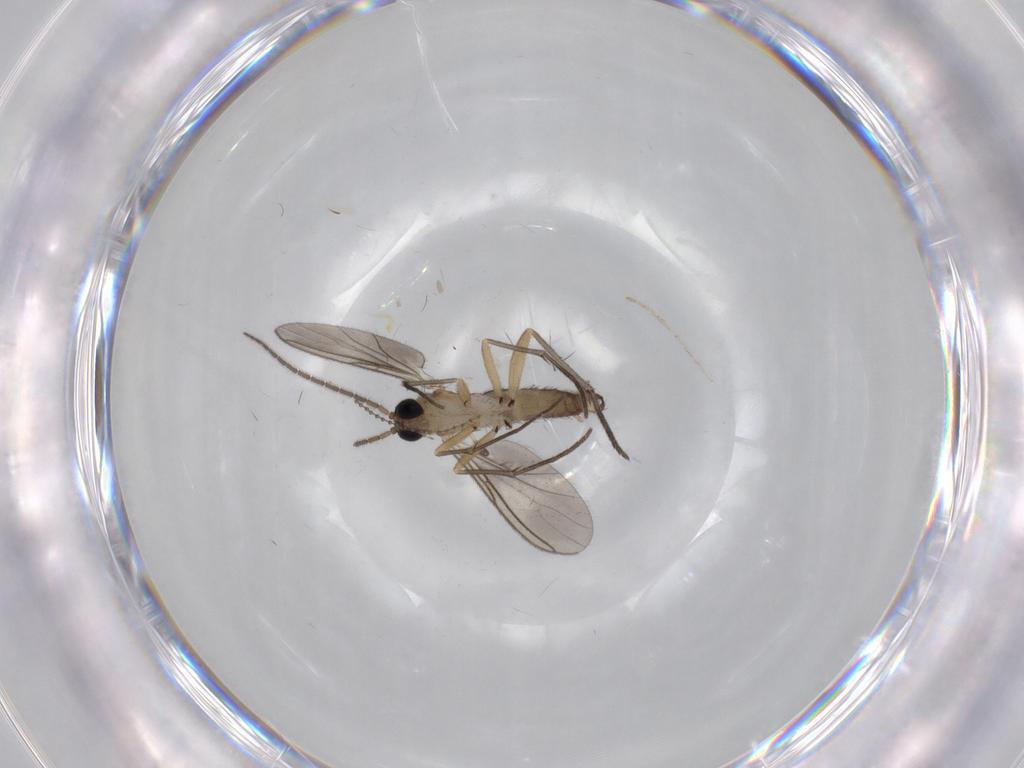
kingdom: Animalia
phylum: Arthropoda
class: Insecta
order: Diptera
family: Sciaridae
